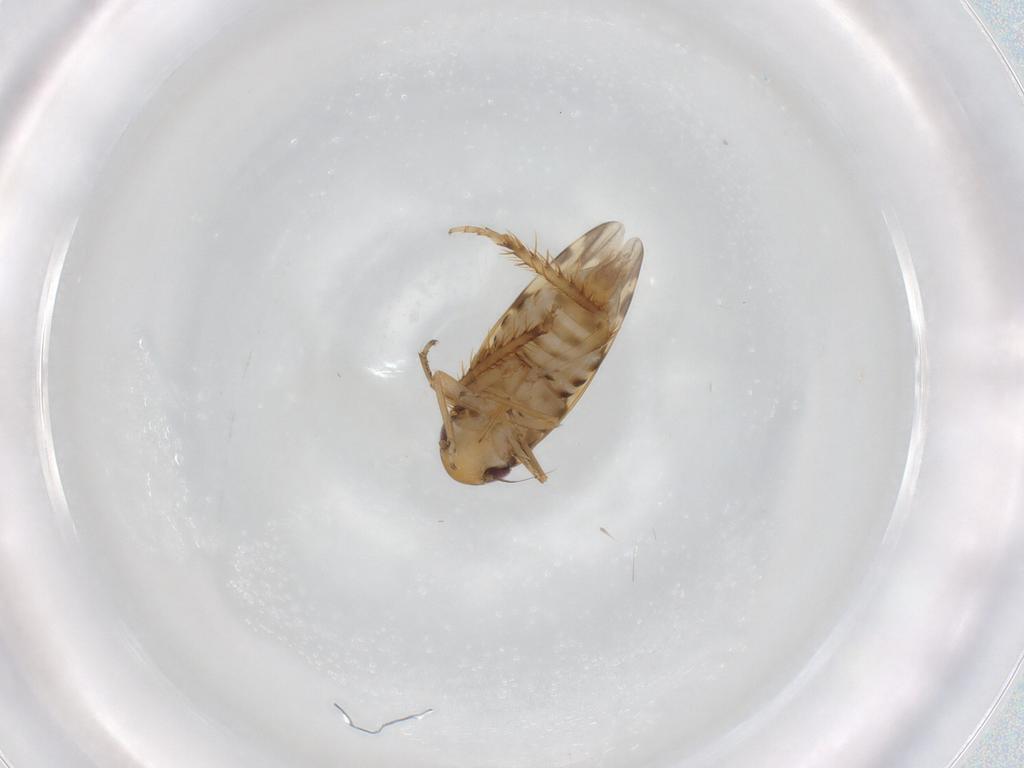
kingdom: Animalia
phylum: Arthropoda
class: Insecta
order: Hemiptera
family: Cicadellidae
